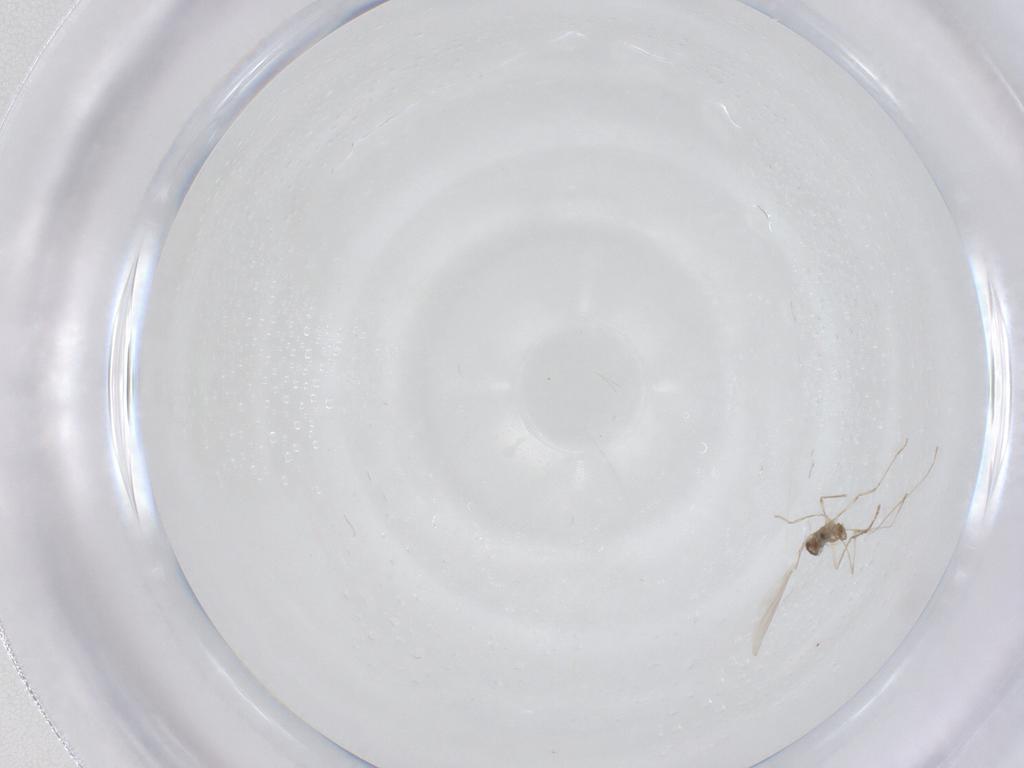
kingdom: Animalia
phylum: Arthropoda
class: Insecta
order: Diptera
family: Cecidomyiidae
